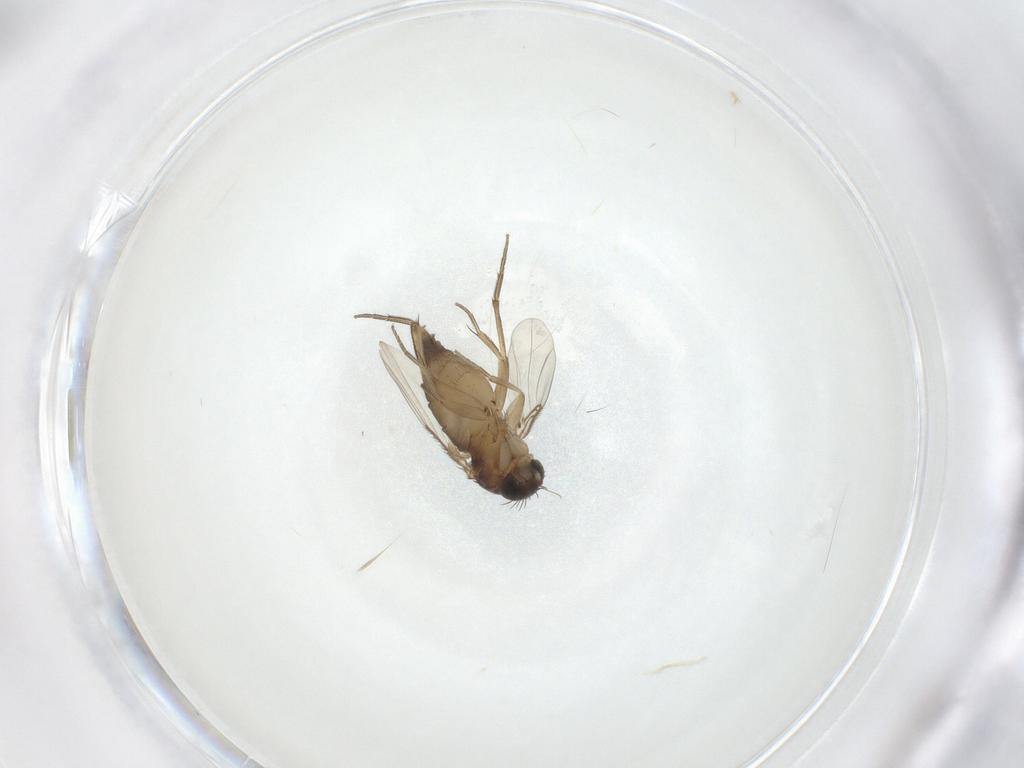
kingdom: Animalia
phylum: Arthropoda
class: Insecta
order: Diptera
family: Phoridae
